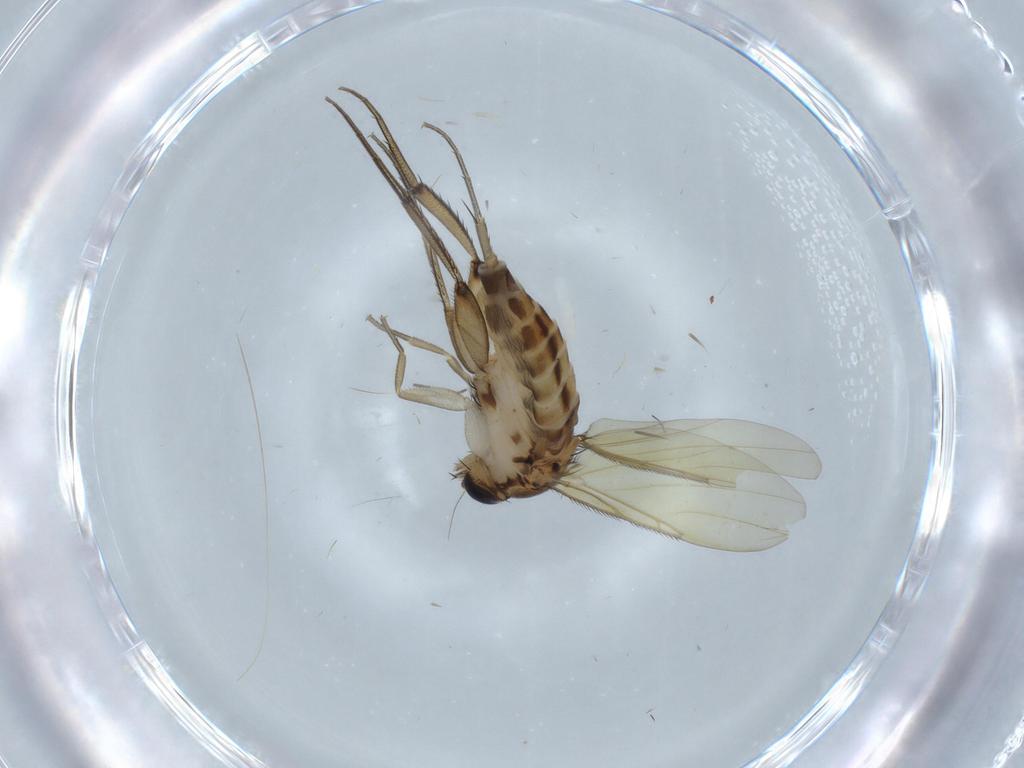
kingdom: Animalia
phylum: Arthropoda
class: Insecta
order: Diptera
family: Phoridae
